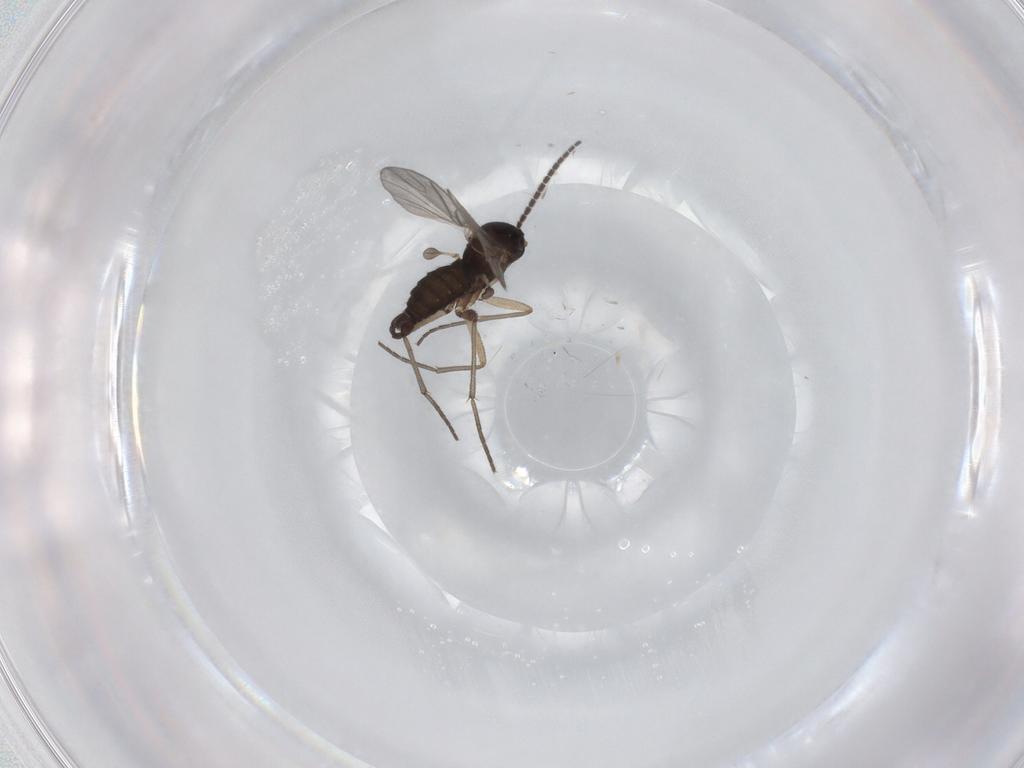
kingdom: Animalia
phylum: Arthropoda
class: Insecta
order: Diptera
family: Sciaridae
